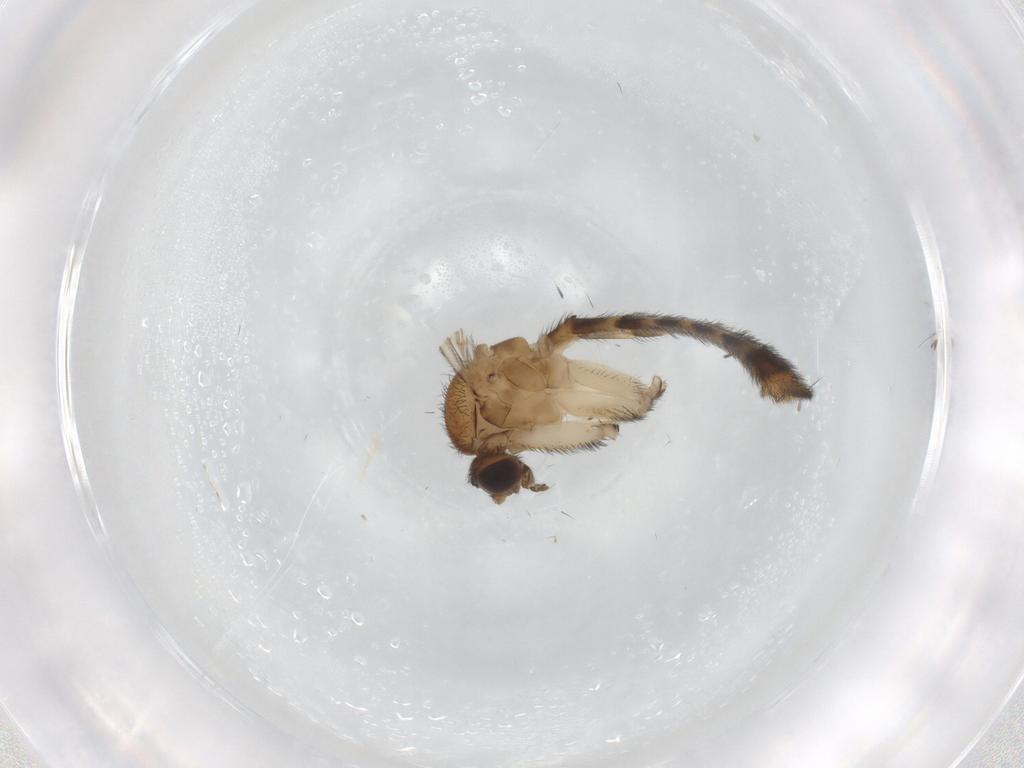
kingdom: Animalia
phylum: Arthropoda
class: Insecta
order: Diptera
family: Keroplatidae
